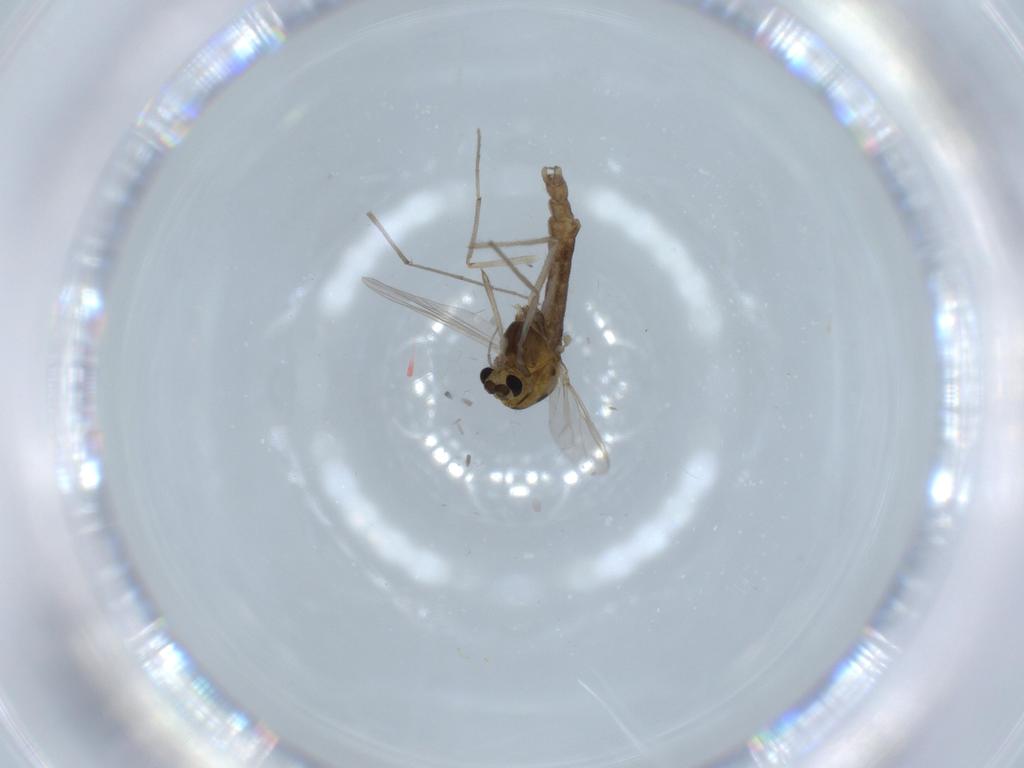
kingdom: Animalia
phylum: Arthropoda
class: Insecta
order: Diptera
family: Chironomidae
